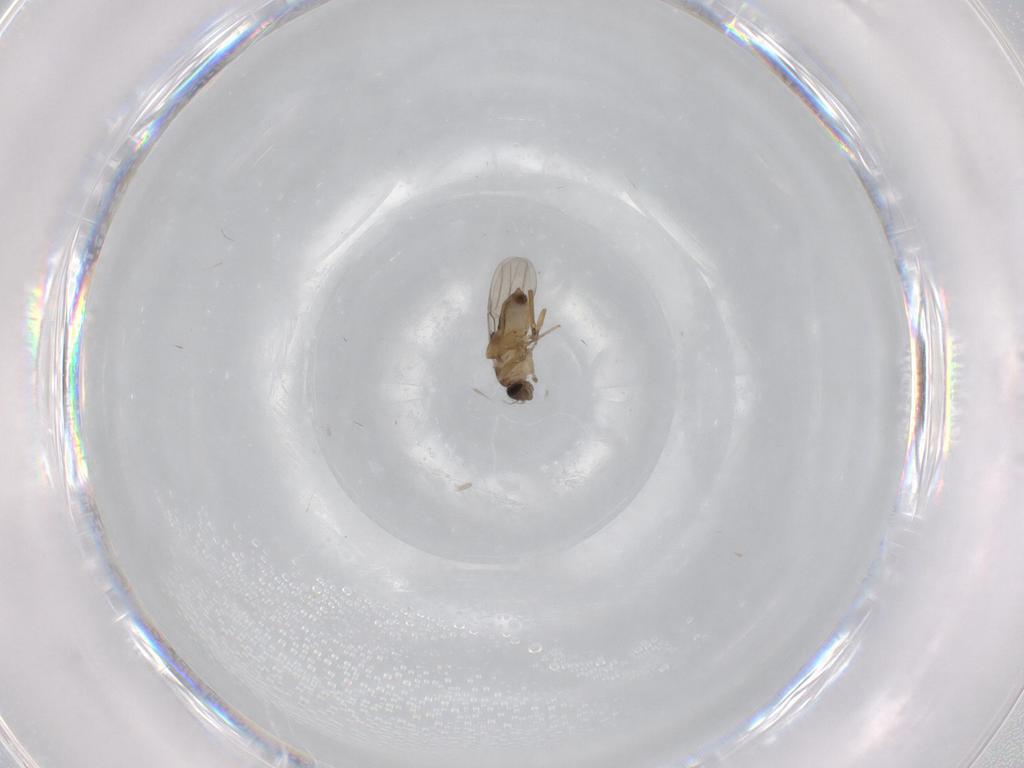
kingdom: Animalia
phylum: Arthropoda
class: Insecta
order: Diptera
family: Phoridae
